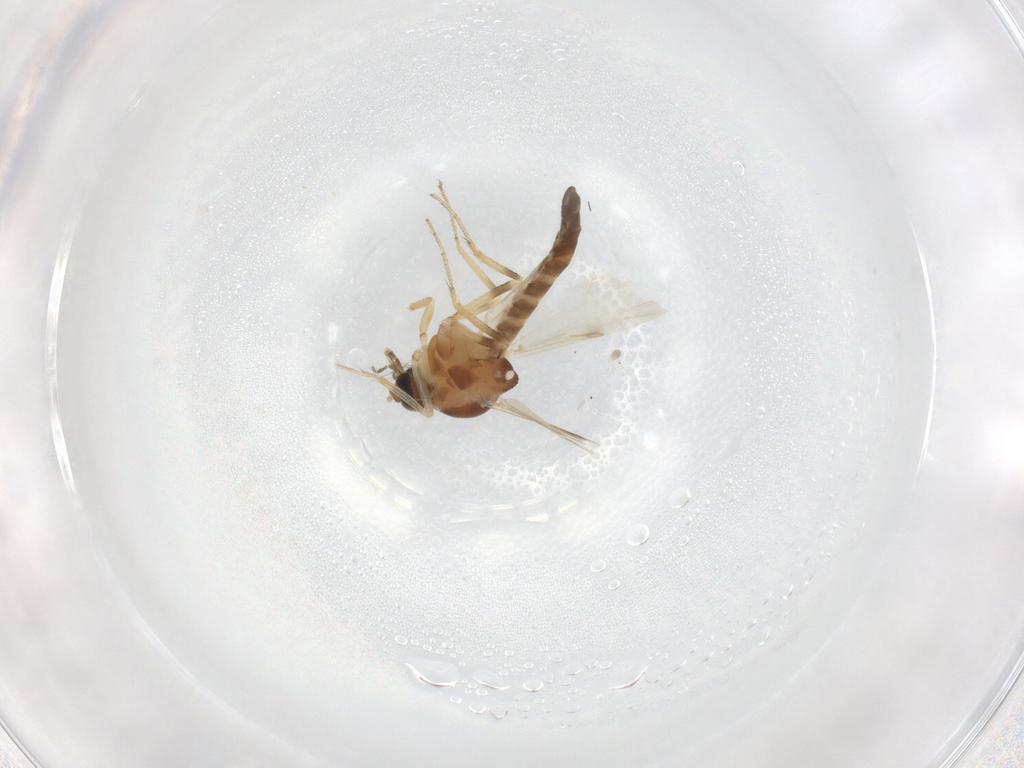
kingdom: Animalia
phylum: Arthropoda
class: Insecta
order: Diptera
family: Ceratopogonidae
